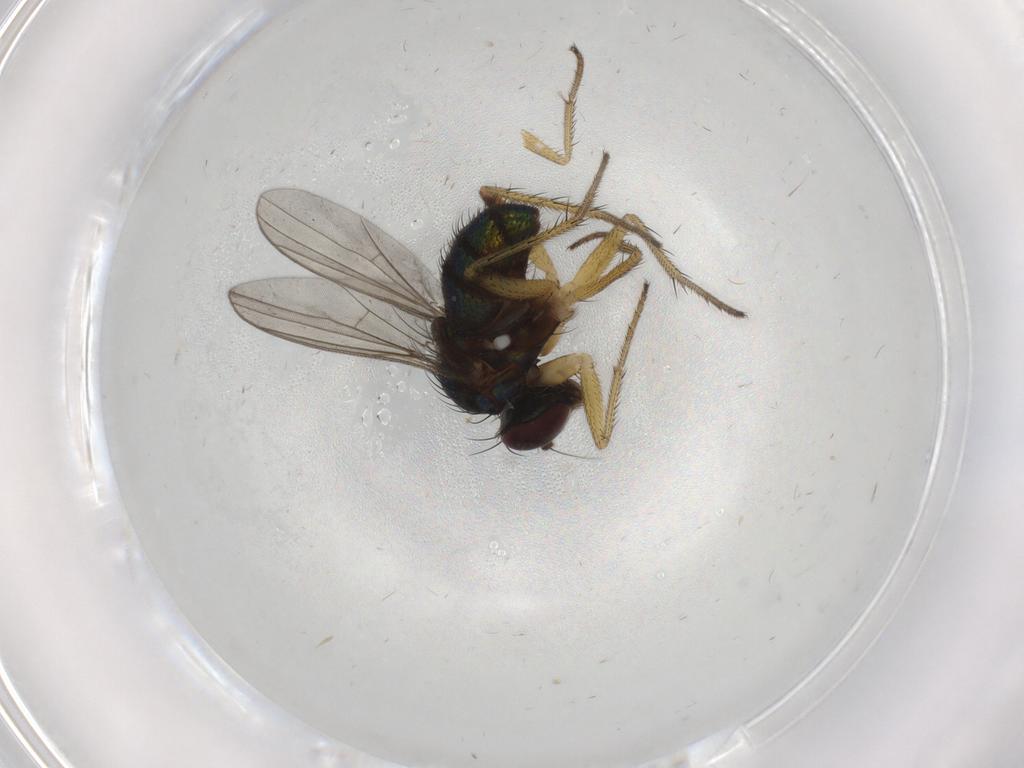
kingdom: Animalia
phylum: Arthropoda
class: Insecta
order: Diptera
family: Dolichopodidae
